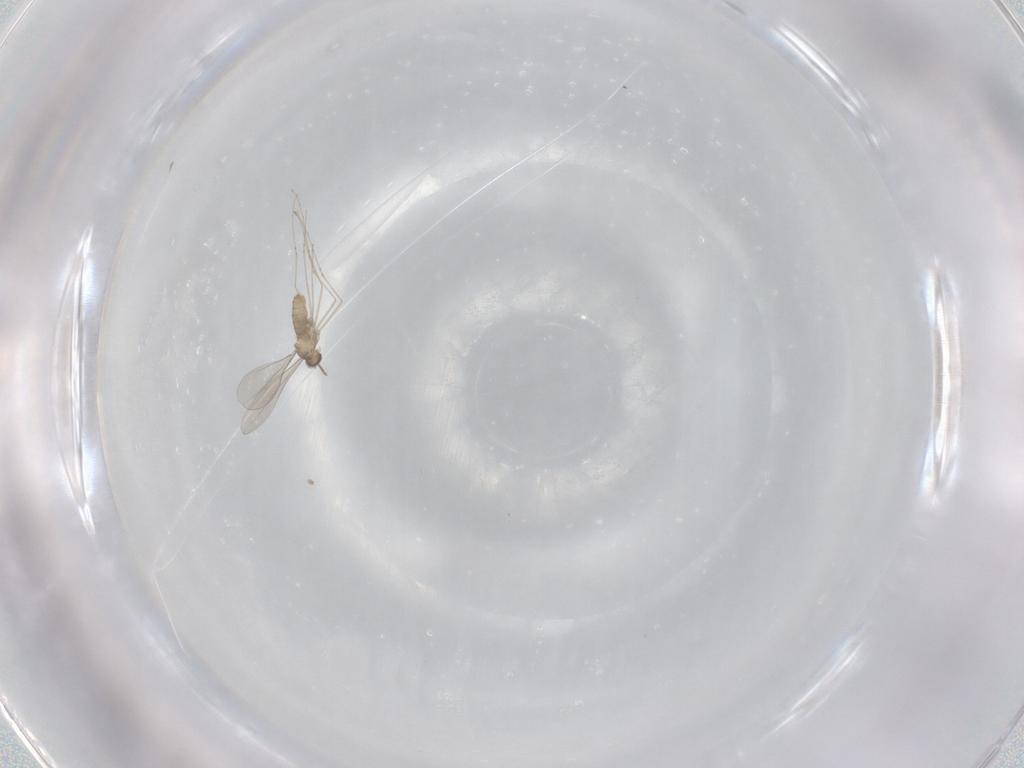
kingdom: Animalia
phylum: Arthropoda
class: Insecta
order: Diptera
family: Cecidomyiidae
